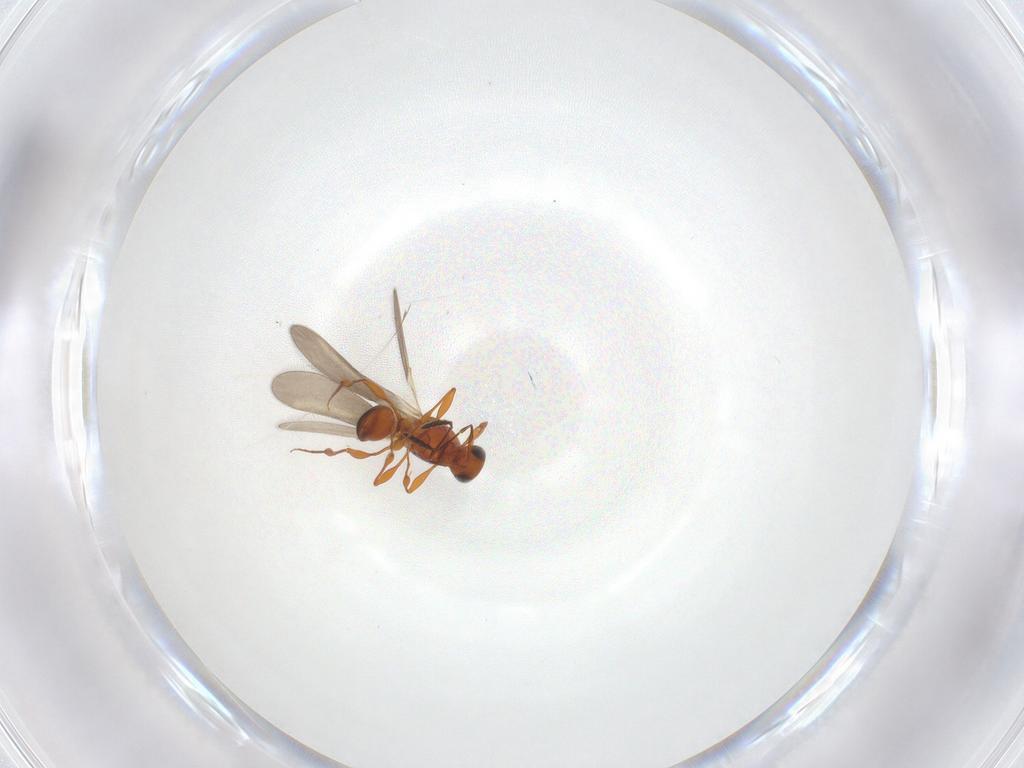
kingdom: Animalia
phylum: Arthropoda
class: Insecta
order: Hymenoptera
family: Platygastridae
